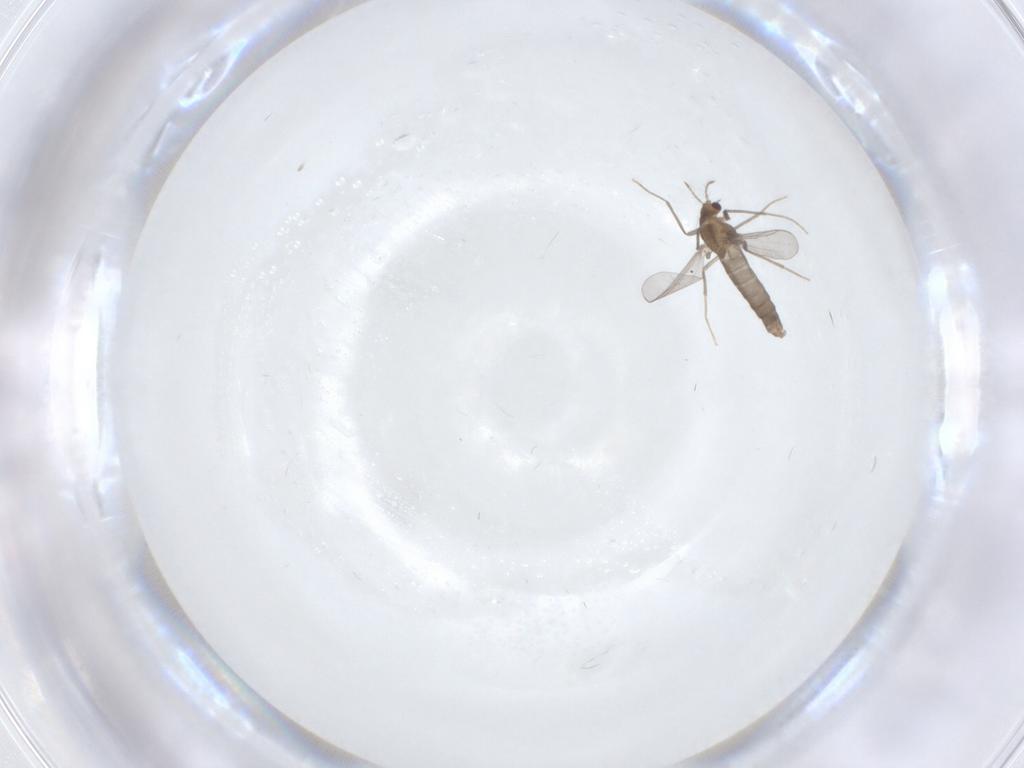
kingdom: Animalia
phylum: Arthropoda
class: Insecta
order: Diptera
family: Chironomidae
